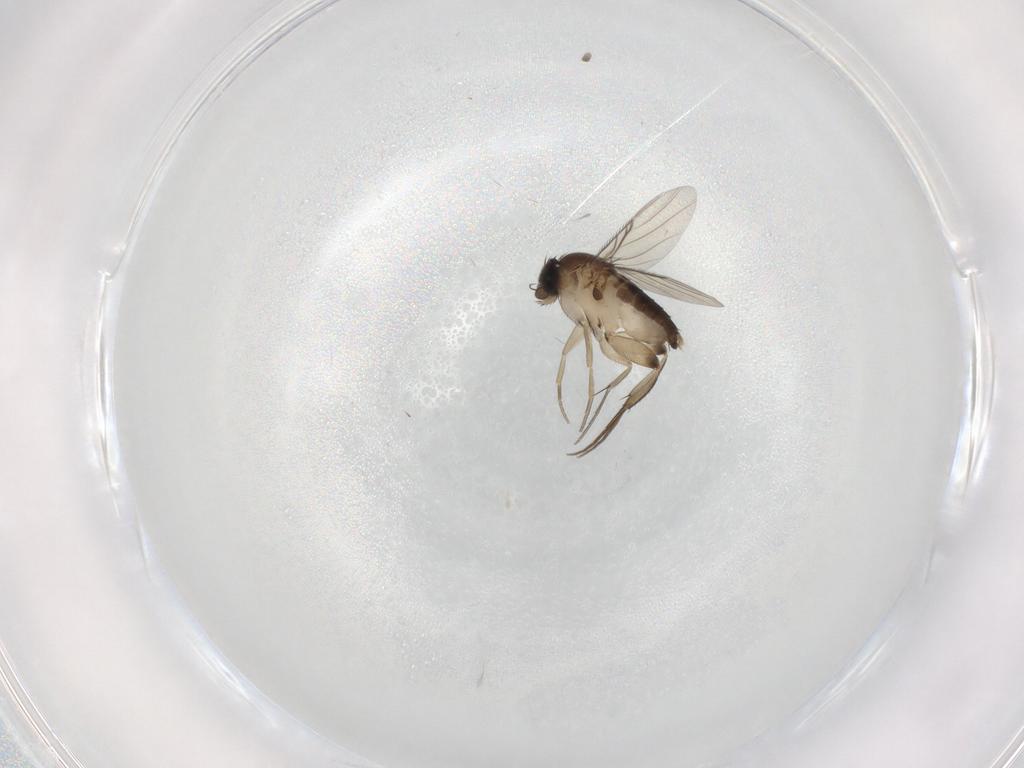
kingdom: Animalia
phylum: Arthropoda
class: Insecta
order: Diptera
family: Phoridae
